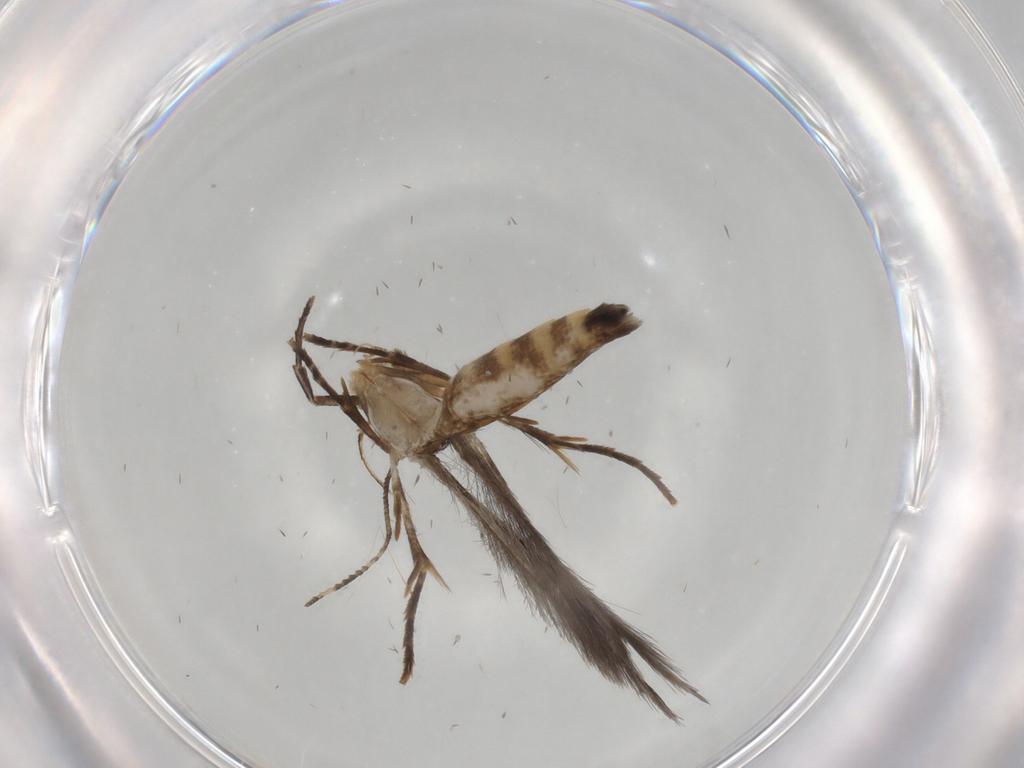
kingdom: Animalia
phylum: Arthropoda
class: Insecta
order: Lepidoptera
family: Cosmopterigidae
